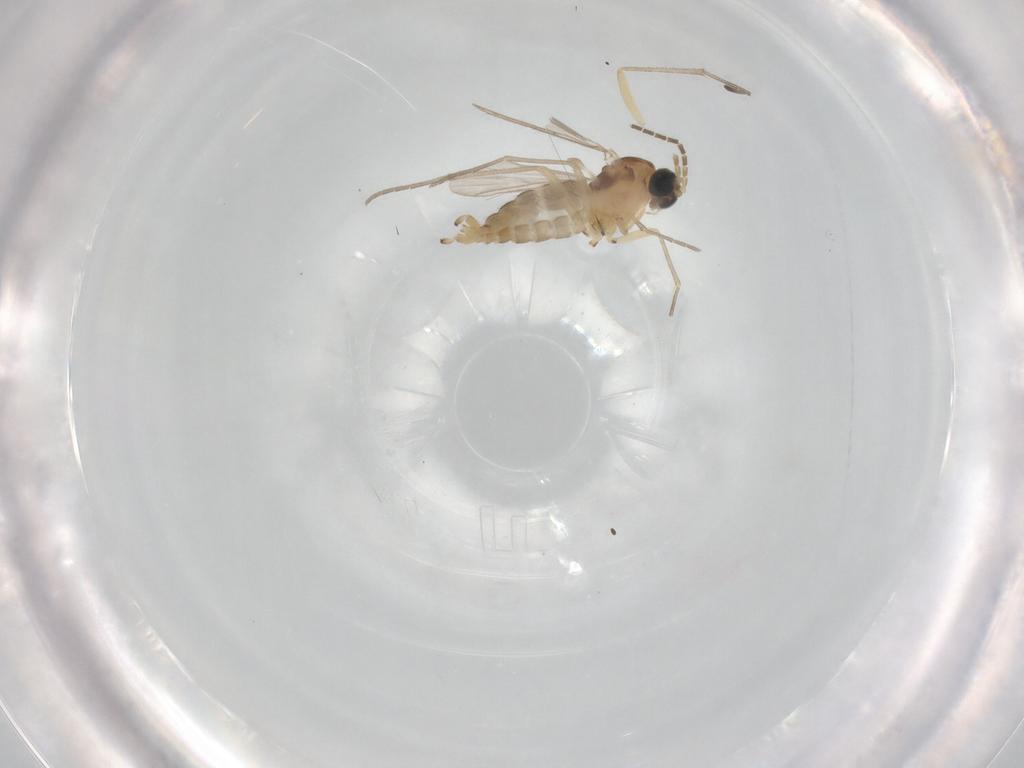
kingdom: Animalia
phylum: Arthropoda
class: Insecta
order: Diptera
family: Sciaridae
